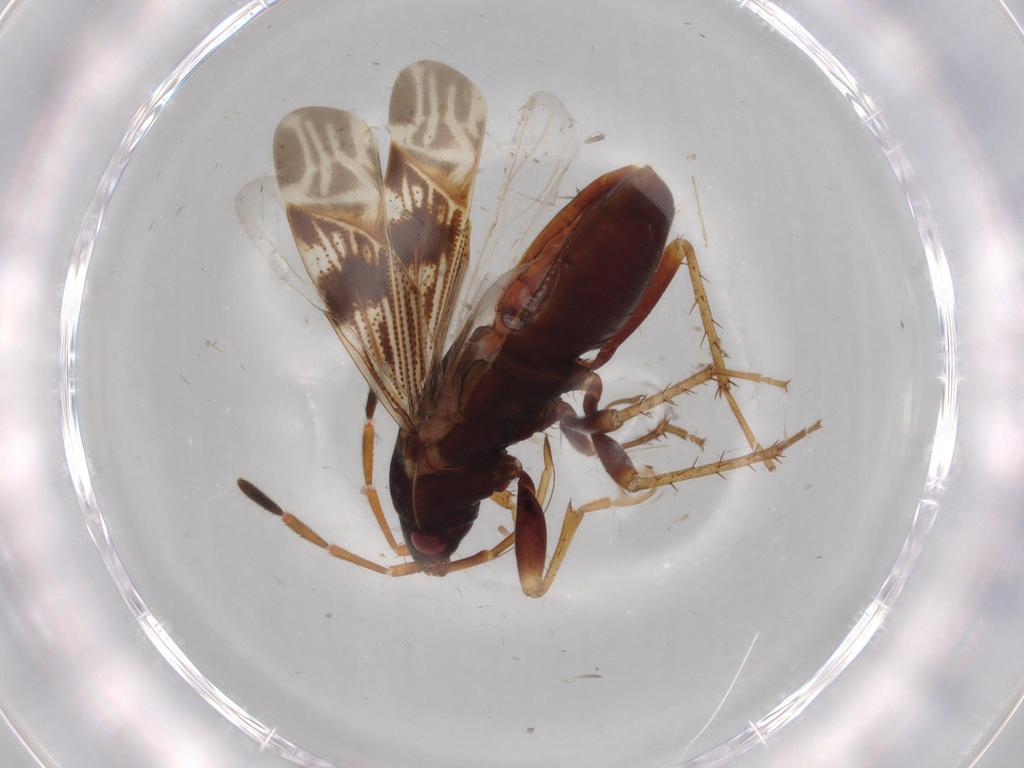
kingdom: Animalia
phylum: Arthropoda
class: Insecta
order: Hemiptera
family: Rhyparochromidae
